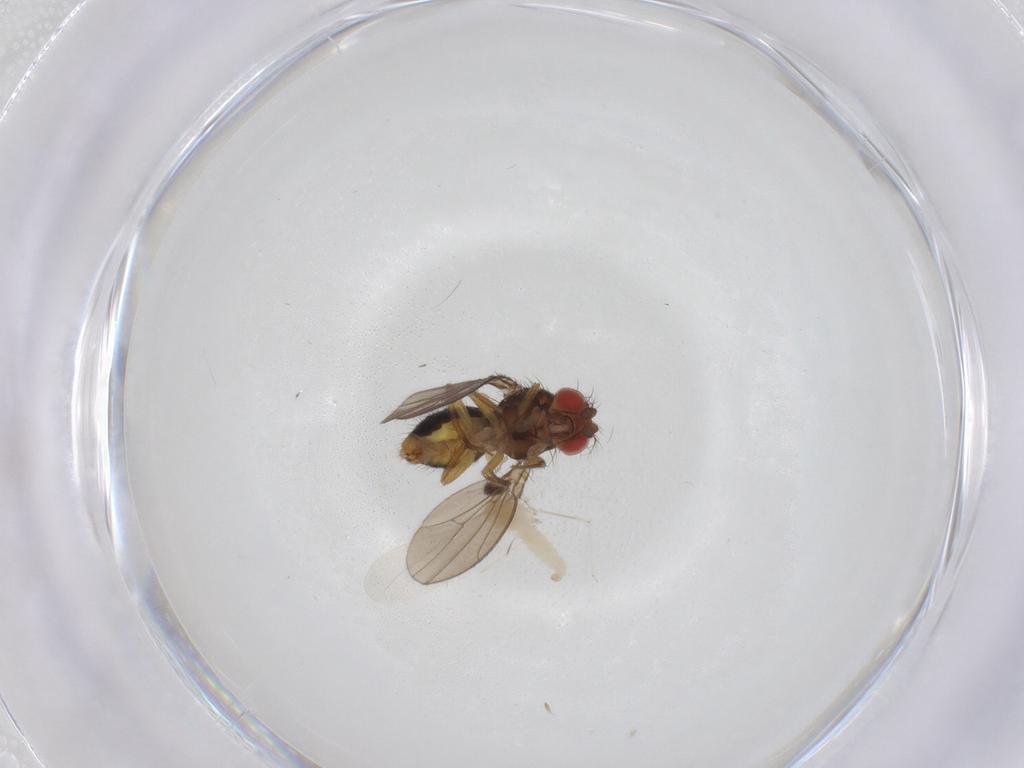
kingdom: Animalia
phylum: Arthropoda
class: Insecta
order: Diptera
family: Drosophilidae
